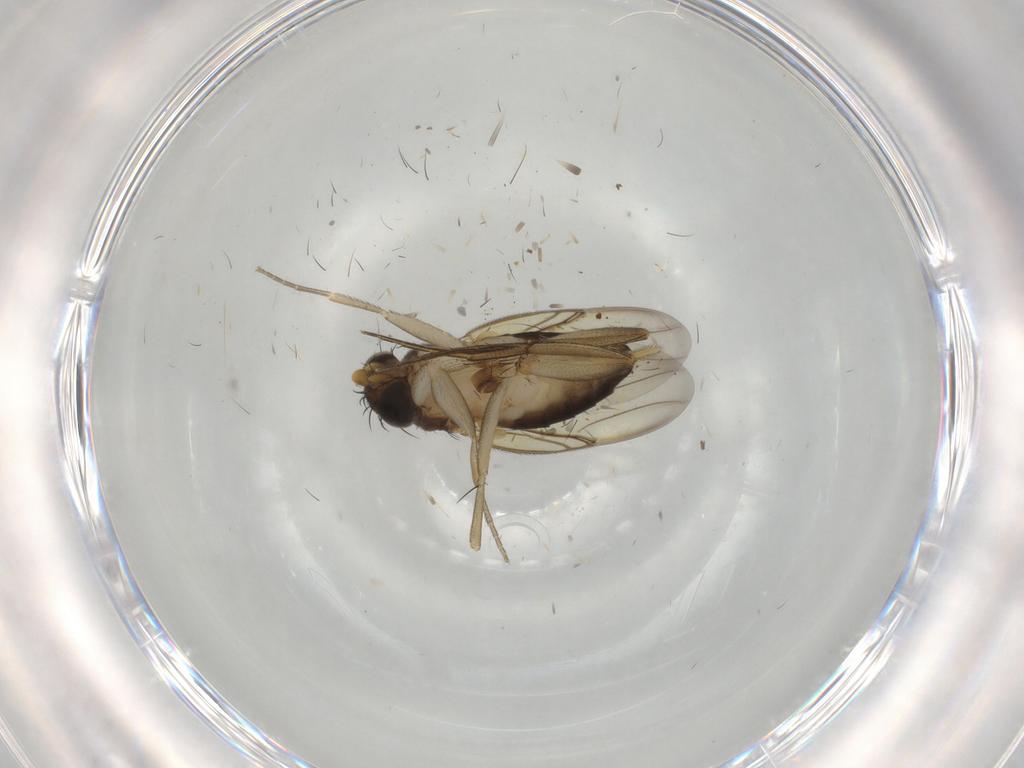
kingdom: Animalia
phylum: Arthropoda
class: Insecta
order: Diptera
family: Phoridae
